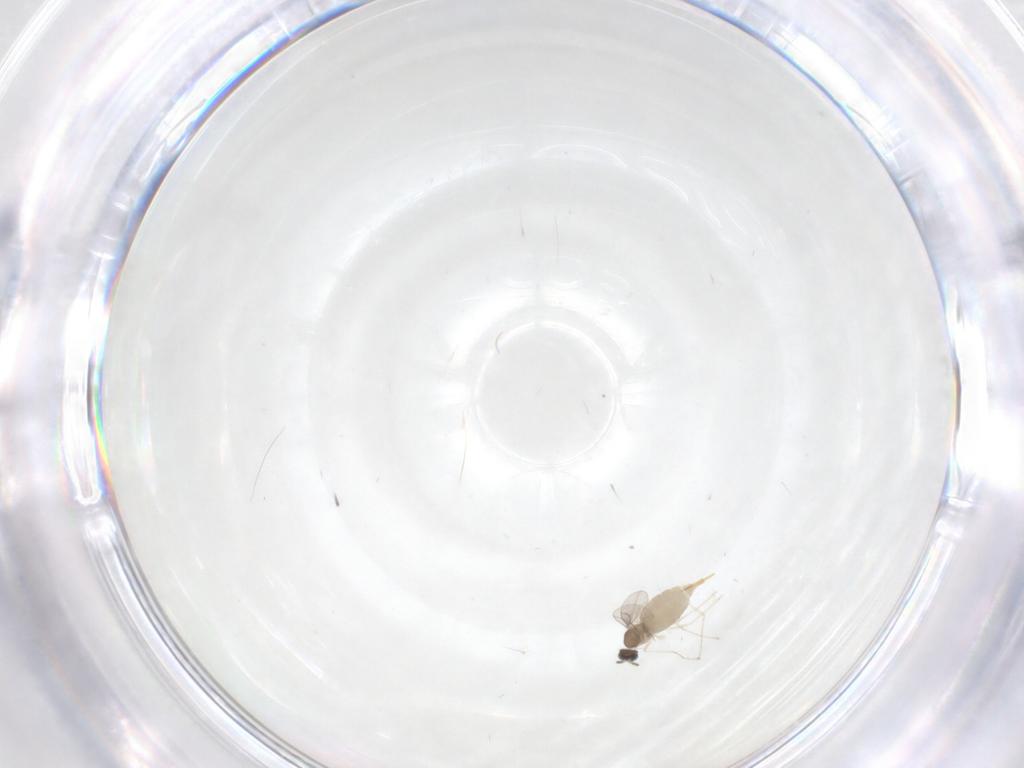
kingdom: Animalia
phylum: Arthropoda
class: Insecta
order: Diptera
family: Cecidomyiidae
